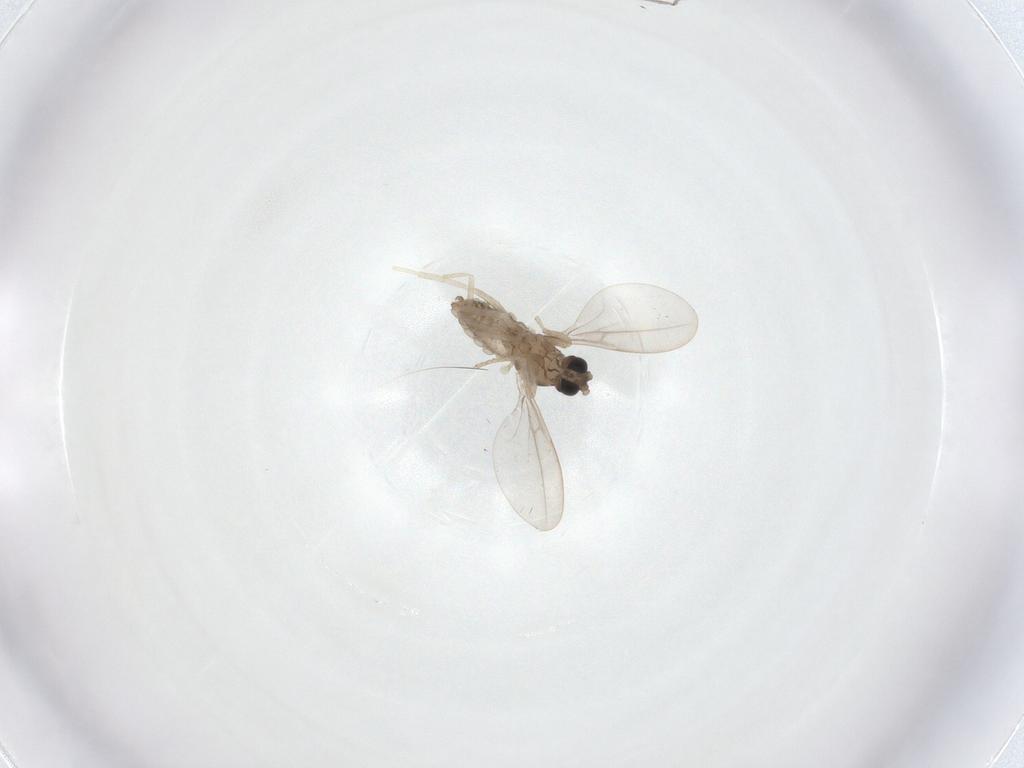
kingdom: Animalia
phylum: Arthropoda
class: Insecta
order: Diptera
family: Cecidomyiidae
